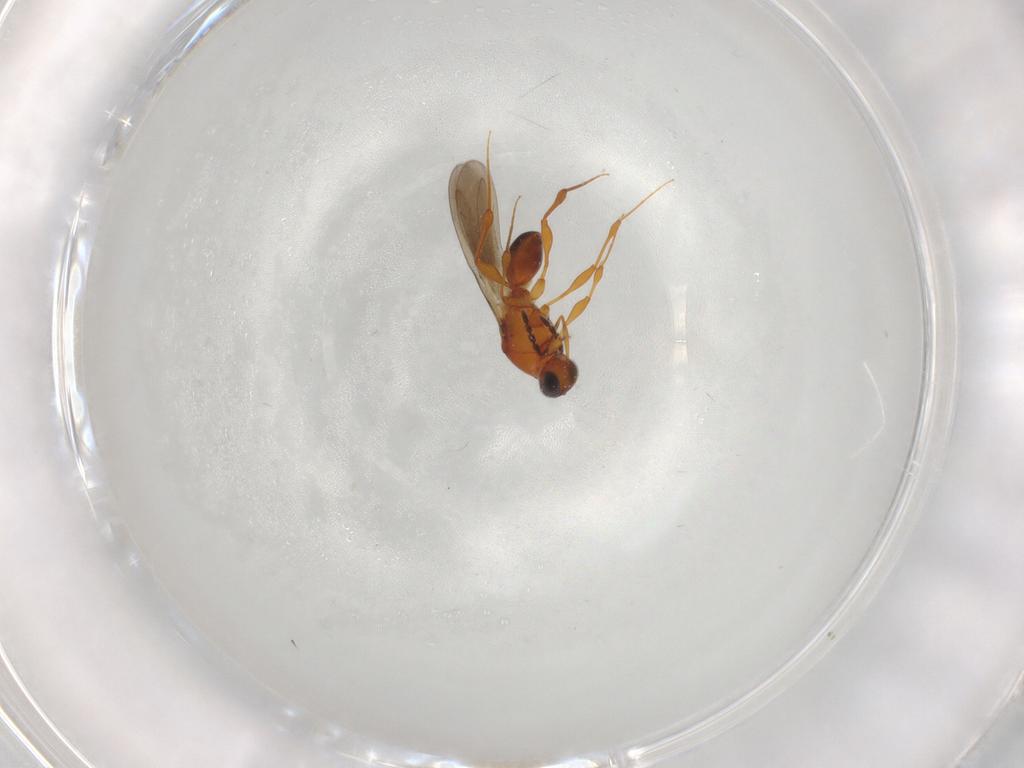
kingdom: Animalia
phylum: Arthropoda
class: Insecta
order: Hymenoptera
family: Platygastridae
